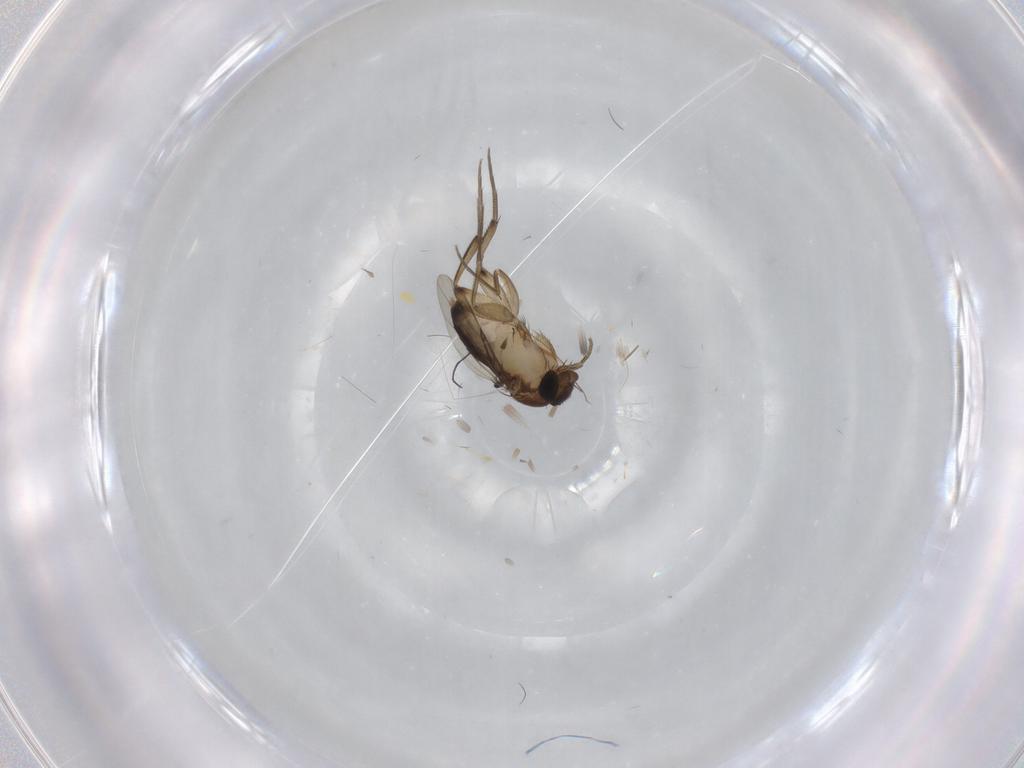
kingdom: Animalia
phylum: Arthropoda
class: Insecta
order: Diptera
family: Phoridae
